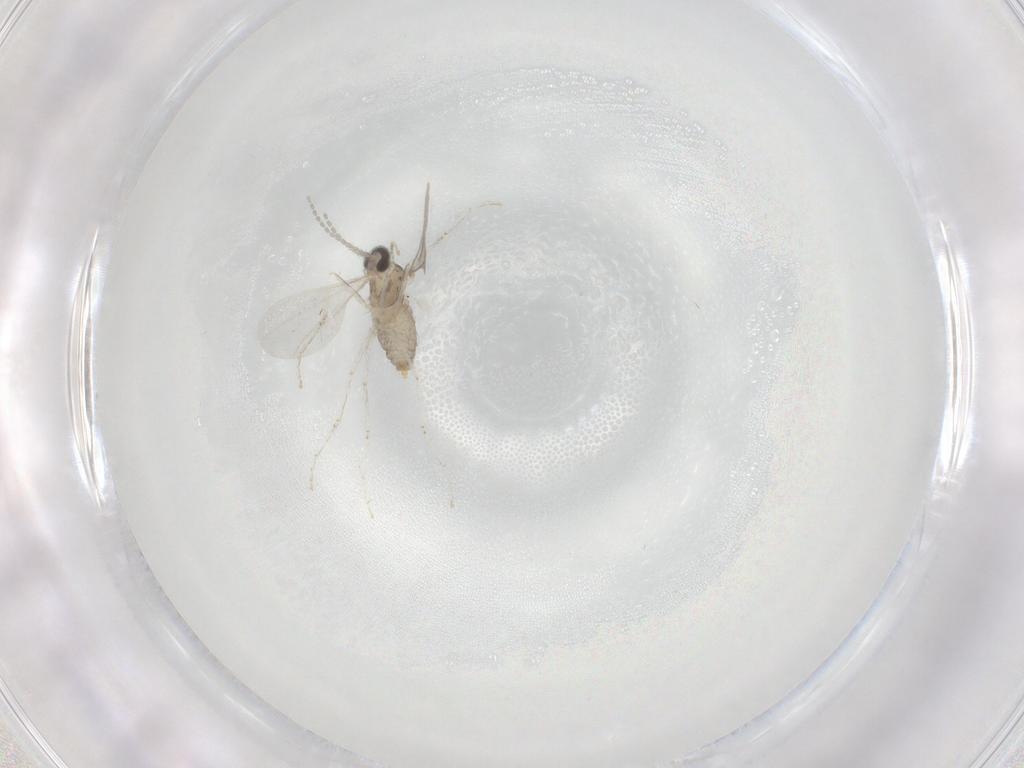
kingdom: Animalia
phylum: Arthropoda
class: Insecta
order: Diptera
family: Cecidomyiidae
